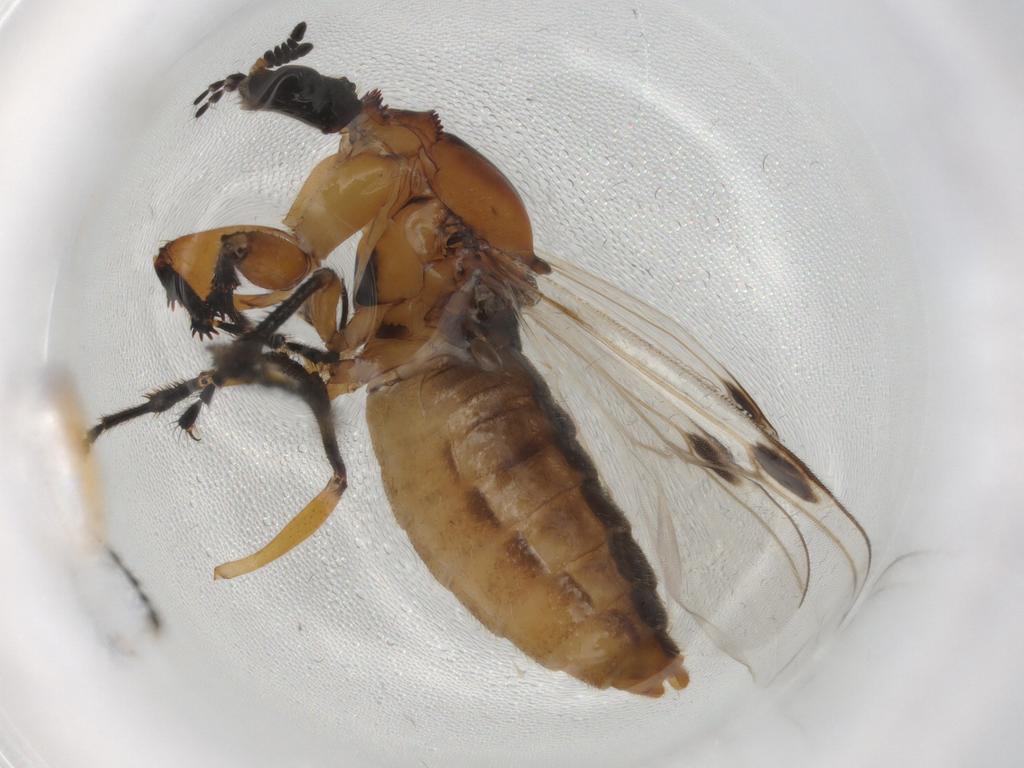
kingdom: Animalia
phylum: Arthropoda
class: Insecta
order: Diptera
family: Bibionidae
